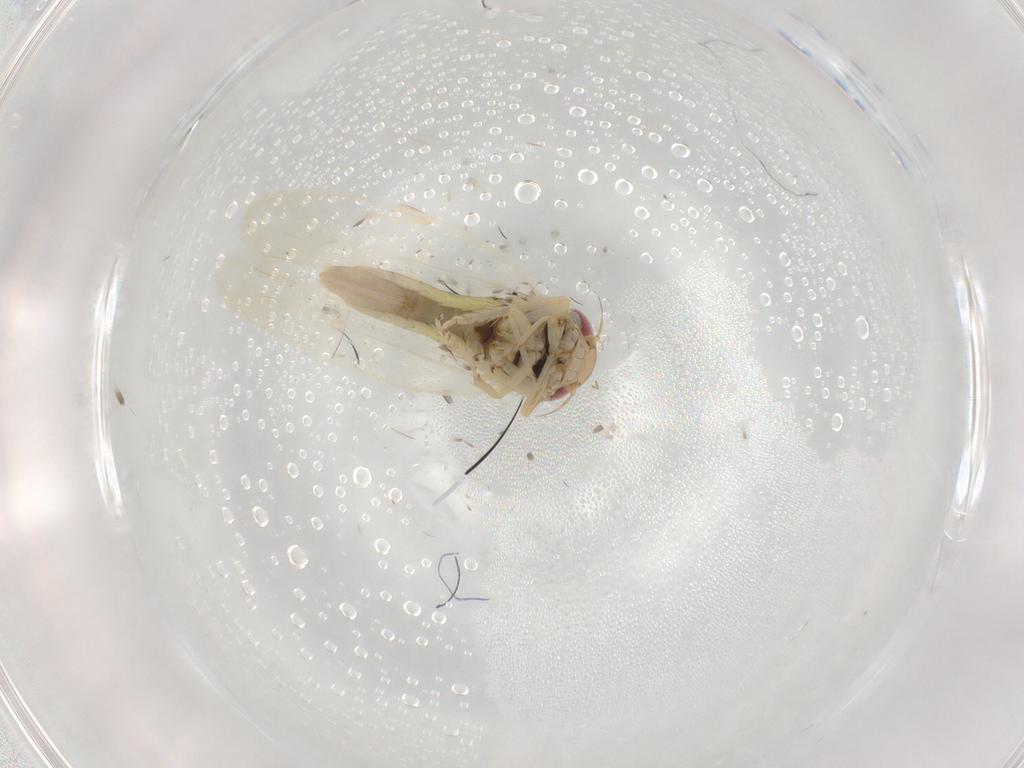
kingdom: Animalia
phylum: Arthropoda
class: Insecta
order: Hemiptera
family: Cicadellidae
